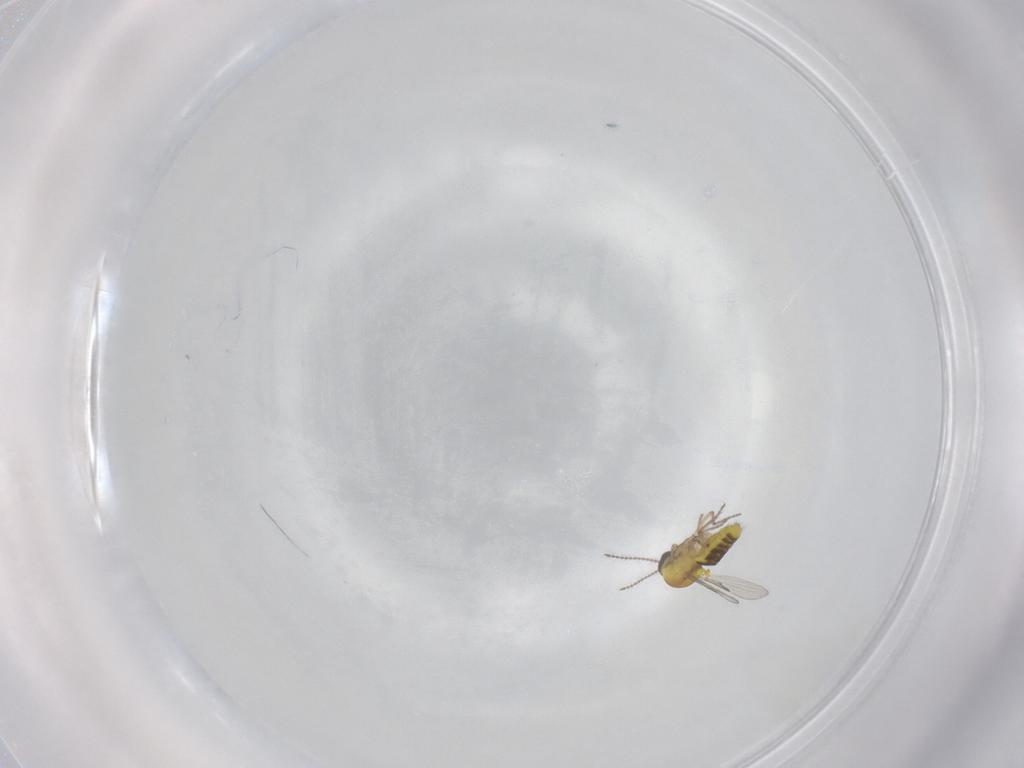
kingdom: Animalia
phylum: Arthropoda
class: Insecta
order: Diptera
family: Ceratopogonidae
